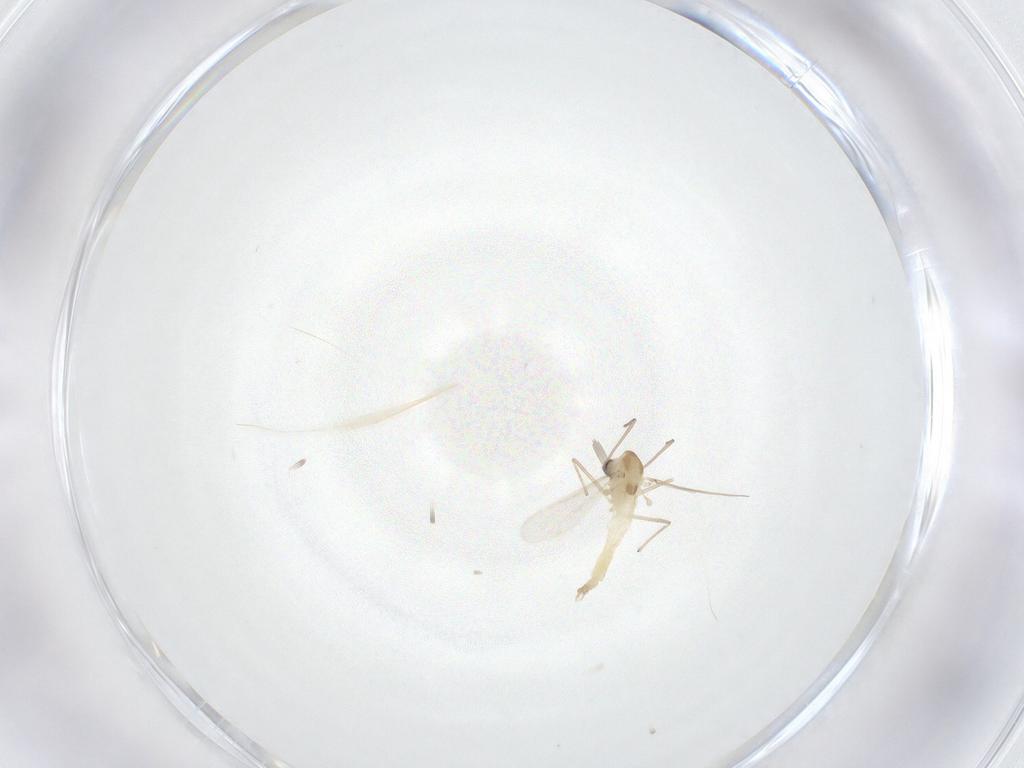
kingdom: Animalia
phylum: Arthropoda
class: Insecta
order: Diptera
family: Chironomidae
